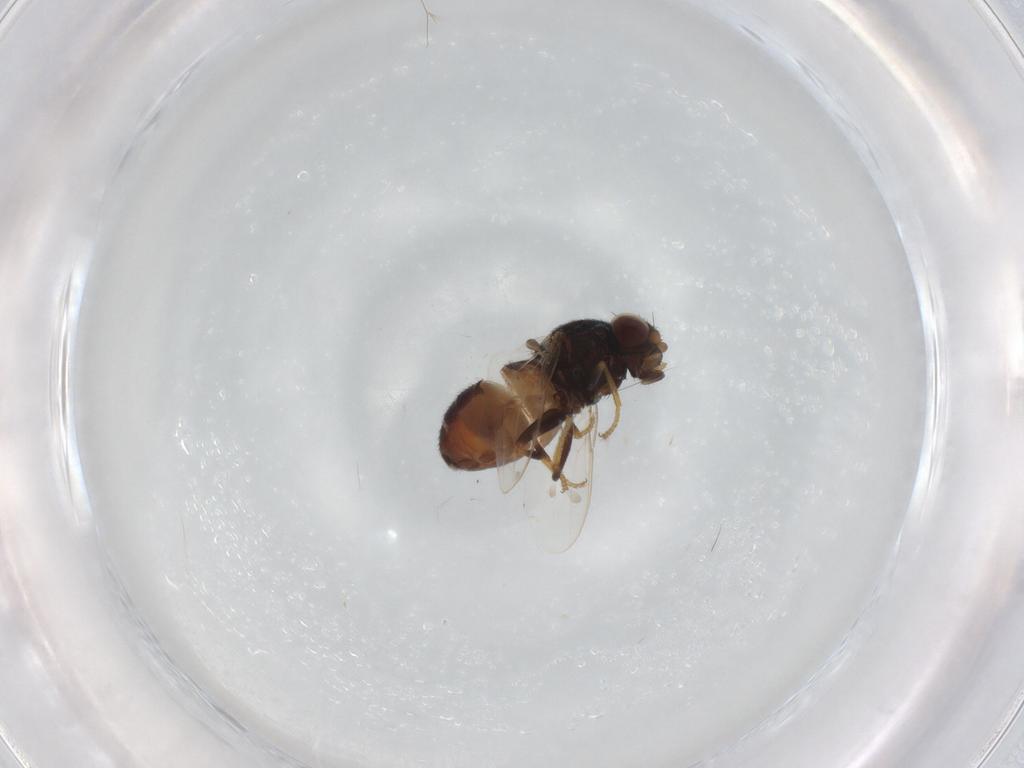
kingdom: Animalia
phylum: Arthropoda
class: Insecta
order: Diptera
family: Chloropidae
